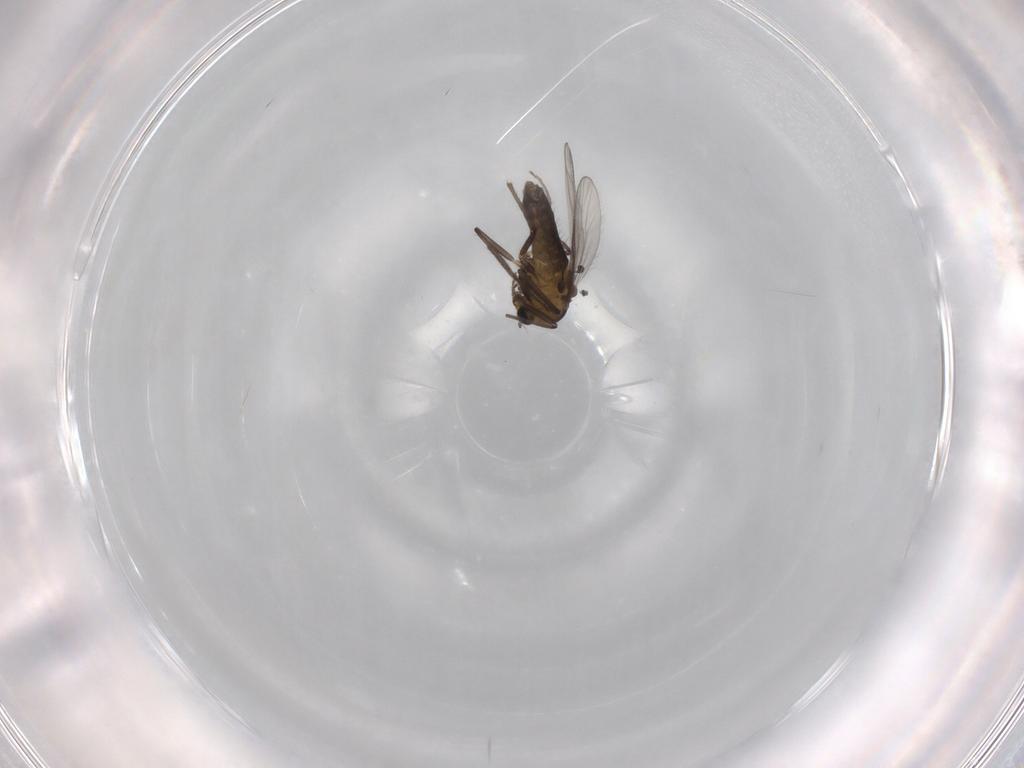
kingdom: Animalia
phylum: Arthropoda
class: Insecta
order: Diptera
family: Chironomidae
